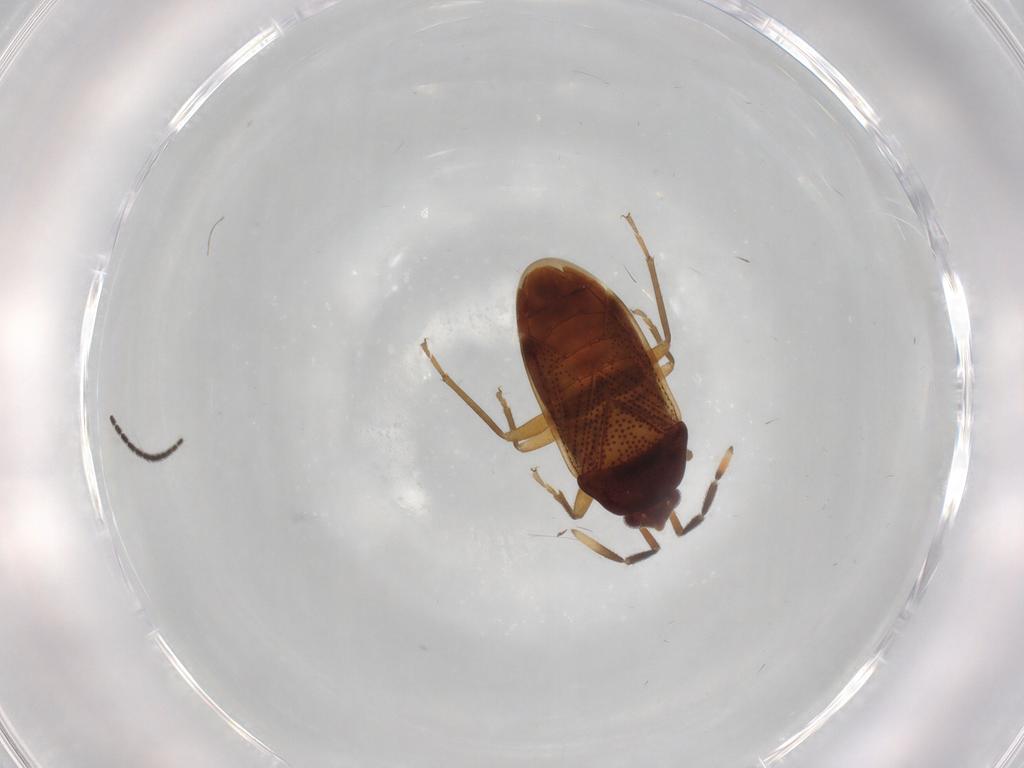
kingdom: Animalia
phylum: Arthropoda
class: Insecta
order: Hemiptera
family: Rhyparochromidae
